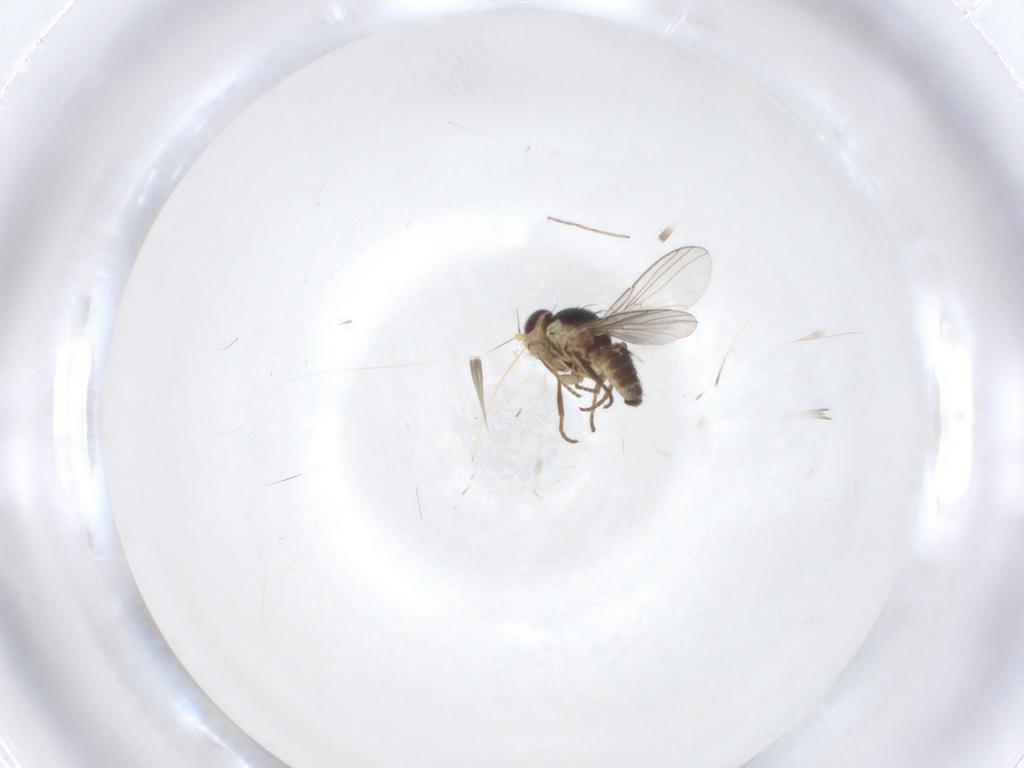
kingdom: Animalia
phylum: Arthropoda
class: Insecta
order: Diptera
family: Agromyzidae
